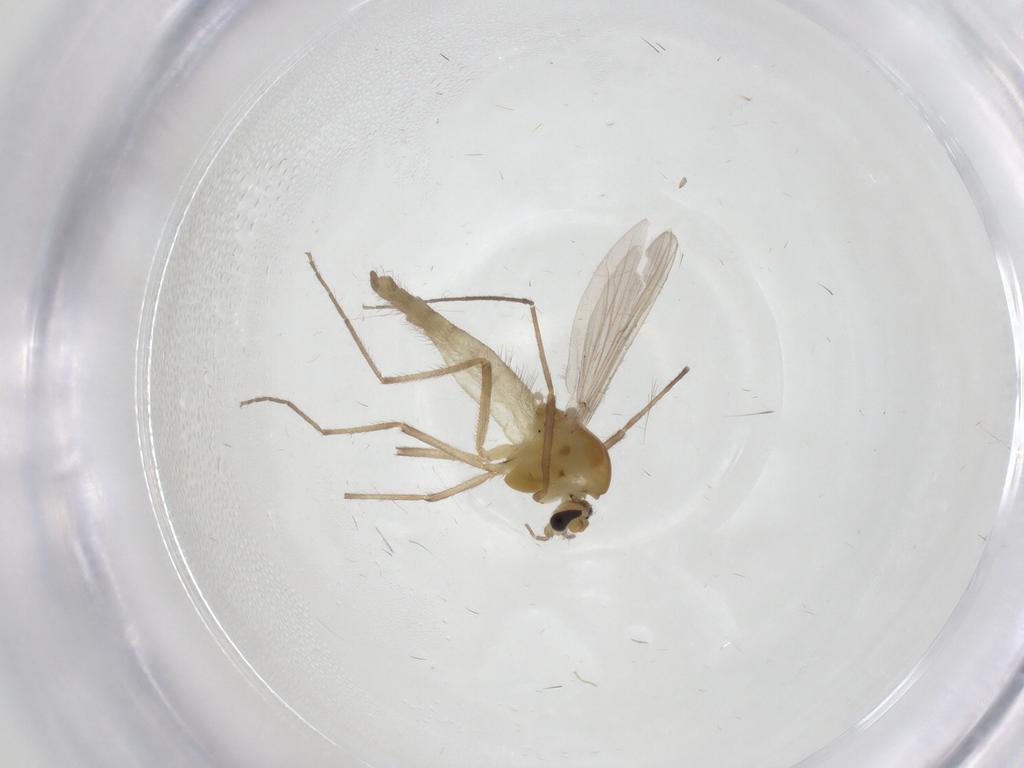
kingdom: Animalia
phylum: Arthropoda
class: Insecta
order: Diptera
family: Chironomidae
